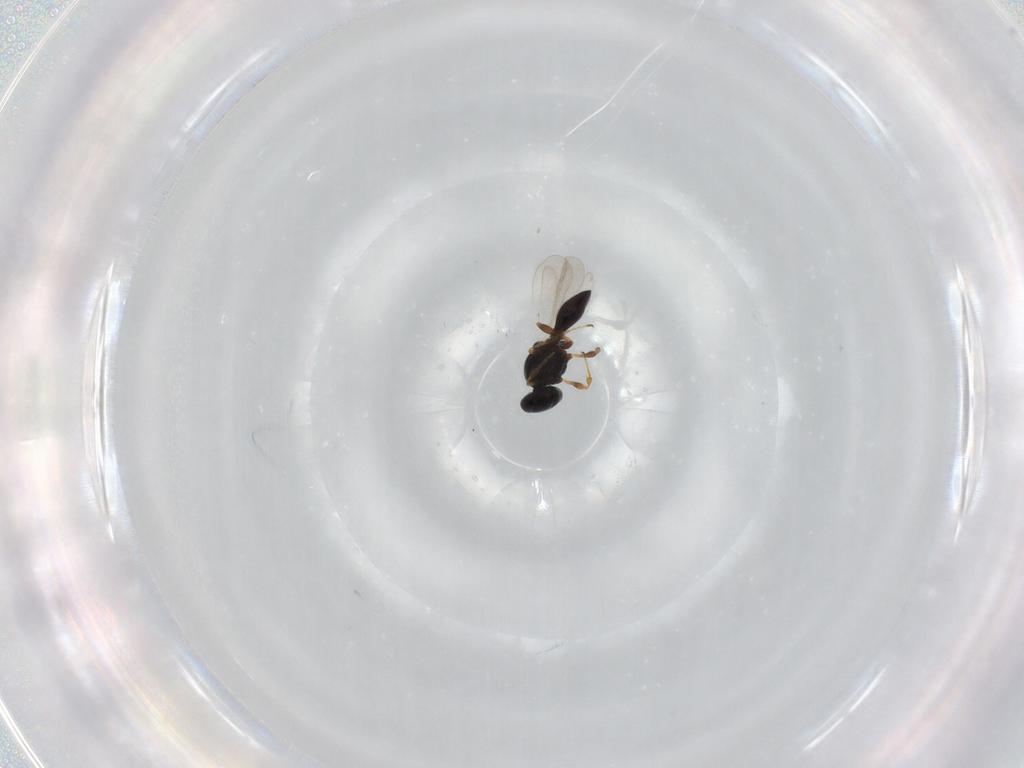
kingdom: Animalia
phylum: Arthropoda
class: Insecta
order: Hymenoptera
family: Platygastridae
